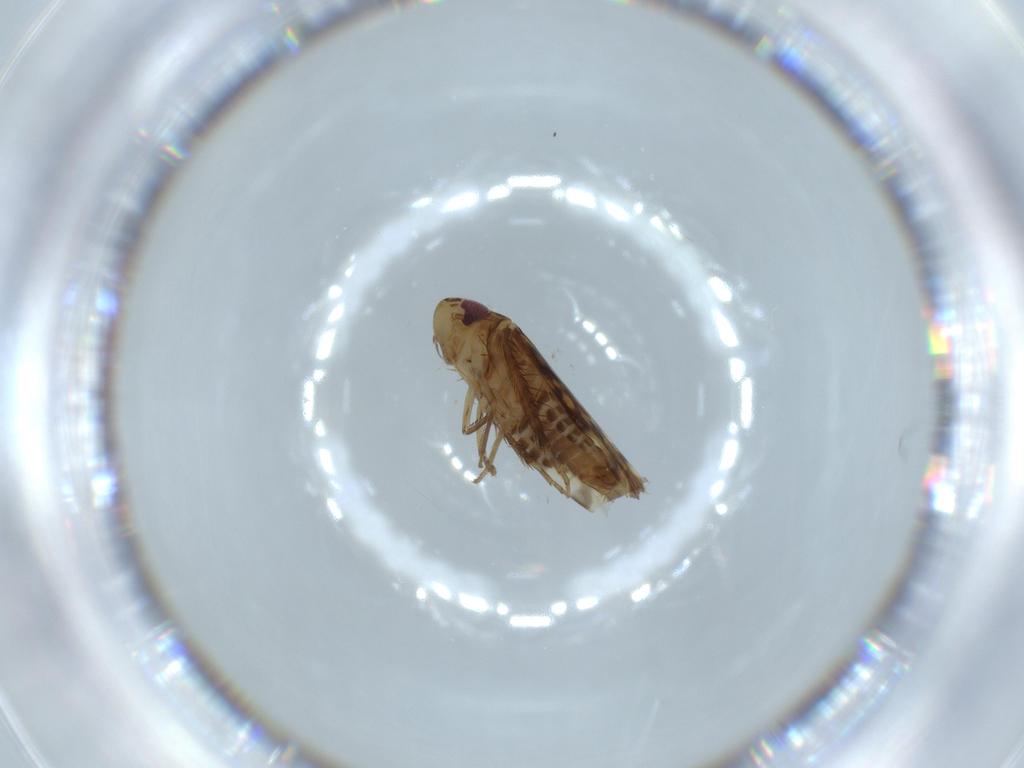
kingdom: Animalia
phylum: Arthropoda
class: Insecta
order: Hemiptera
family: Cicadellidae
